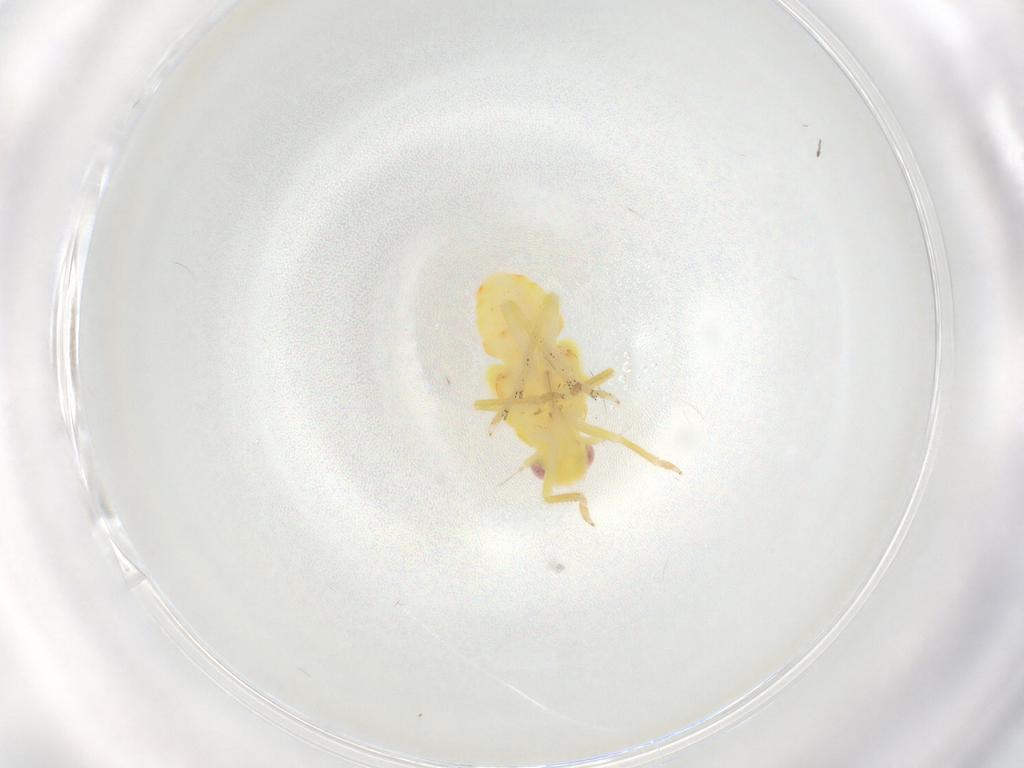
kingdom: Animalia
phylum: Arthropoda
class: Insecta
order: Hemiptera
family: Tropiduchidae
